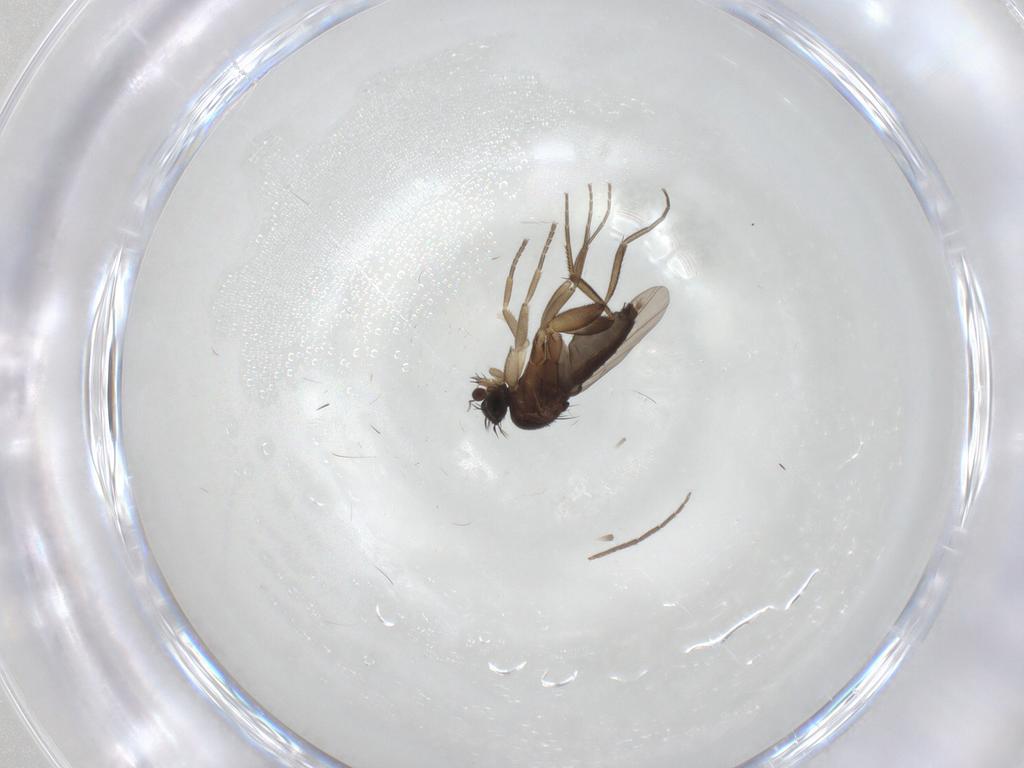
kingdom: Animalia
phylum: Arthropoda
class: Insecta
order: Diptera
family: Phoridae
